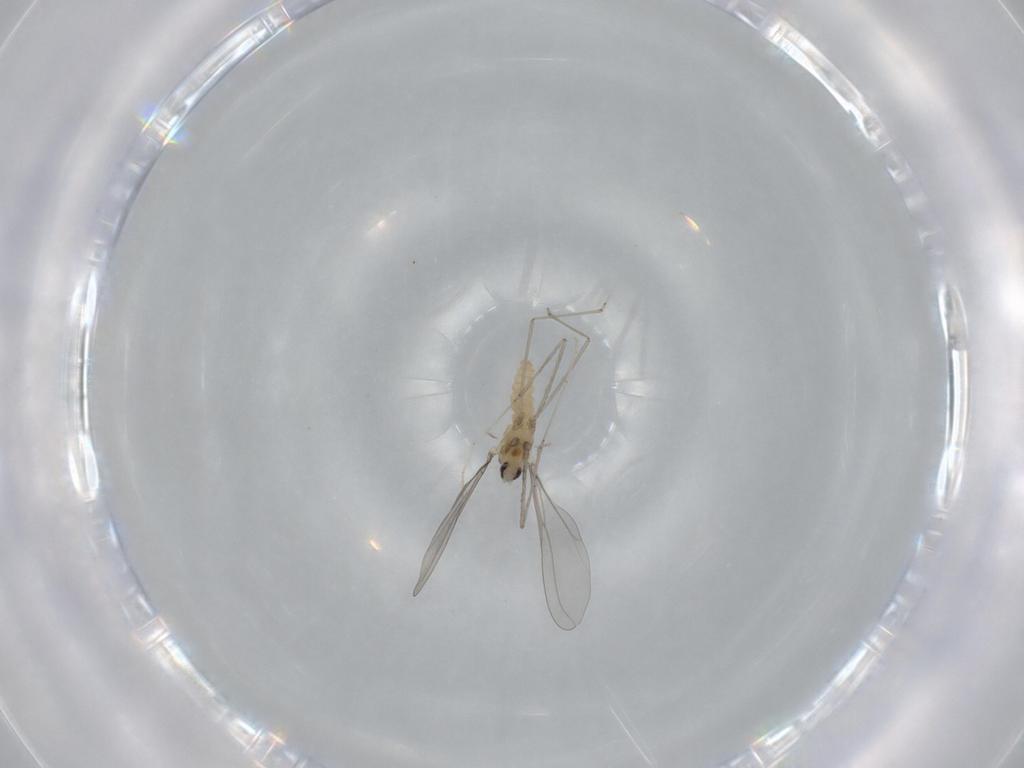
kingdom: Animalia
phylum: Arthropoda
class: Insecta
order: Diptera
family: Cecidomyiidae
